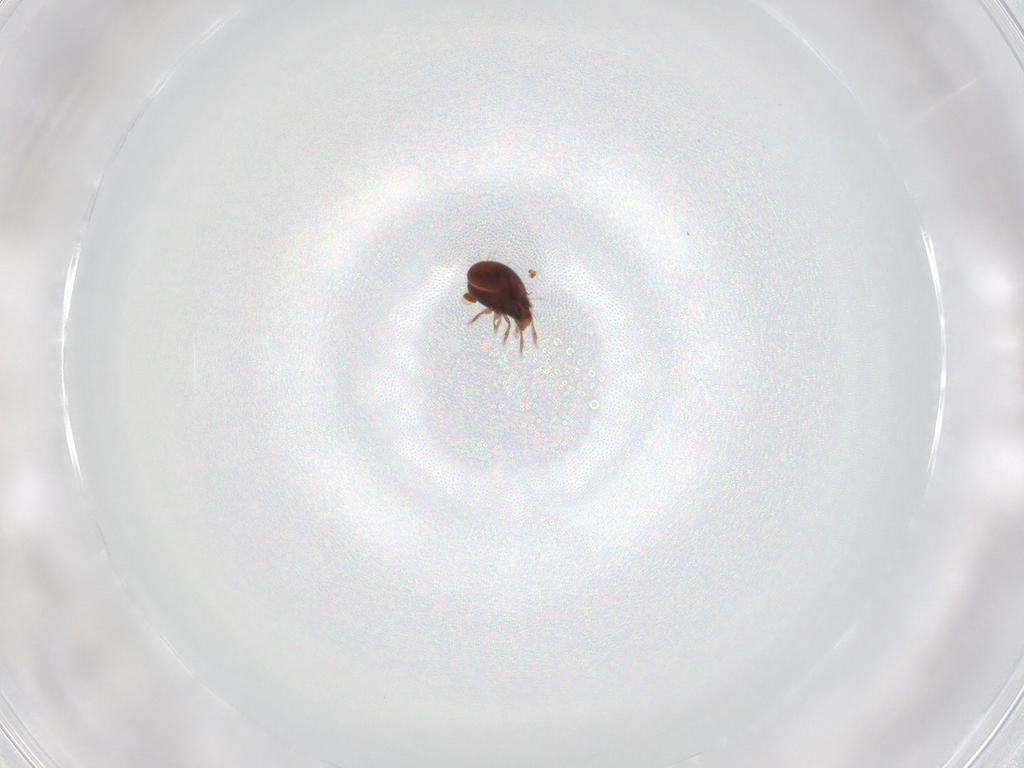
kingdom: Animalia
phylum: Arthropoda
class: Arachnida
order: Sarcoptiformes
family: Humerobatidae
